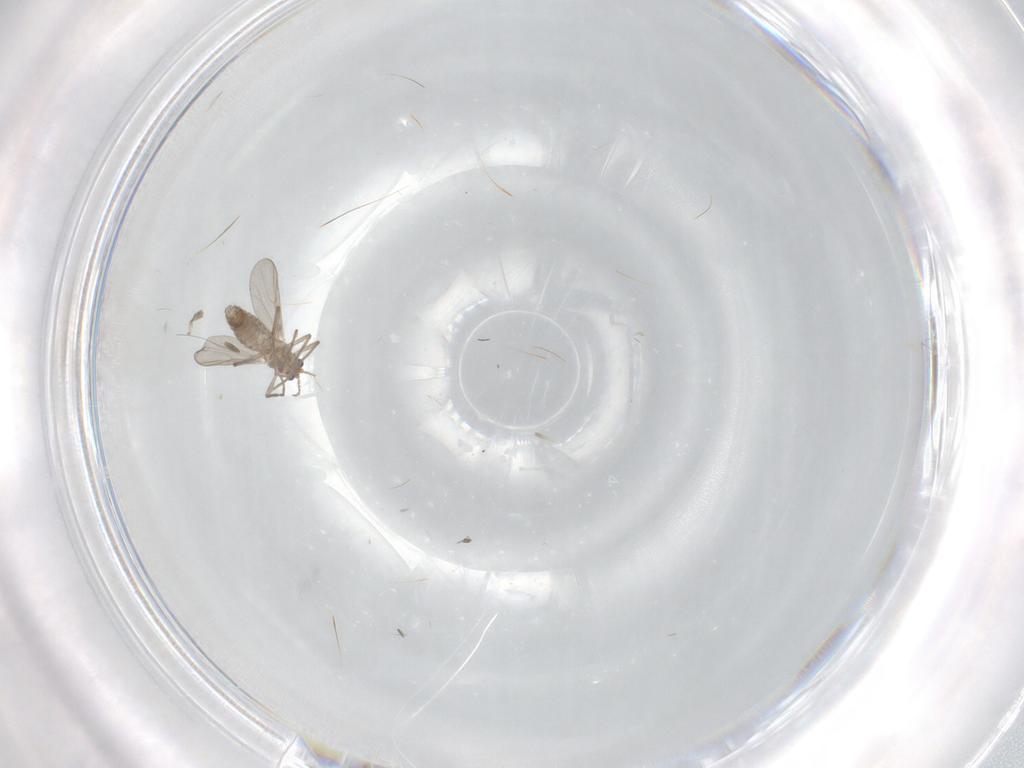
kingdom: Animalia
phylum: Arthropoda
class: Insecta
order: Diptera
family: Chironomidae
